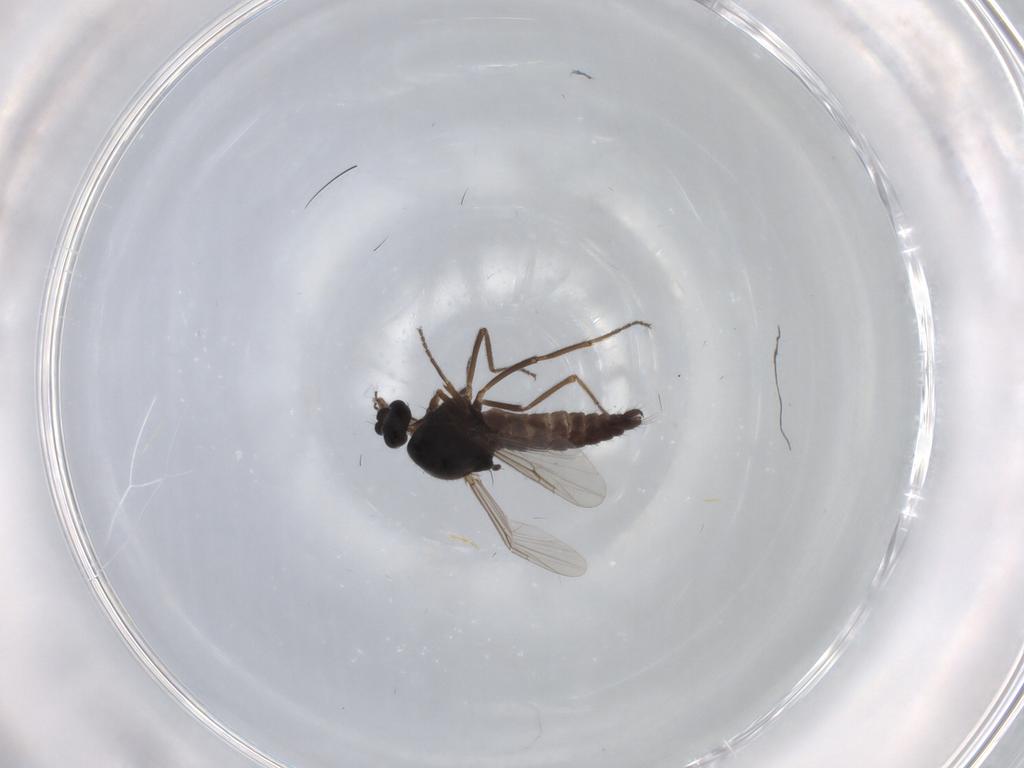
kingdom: Animalia
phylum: Arthropoda
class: Insecta
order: Diptera
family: Ceratopogonidae
